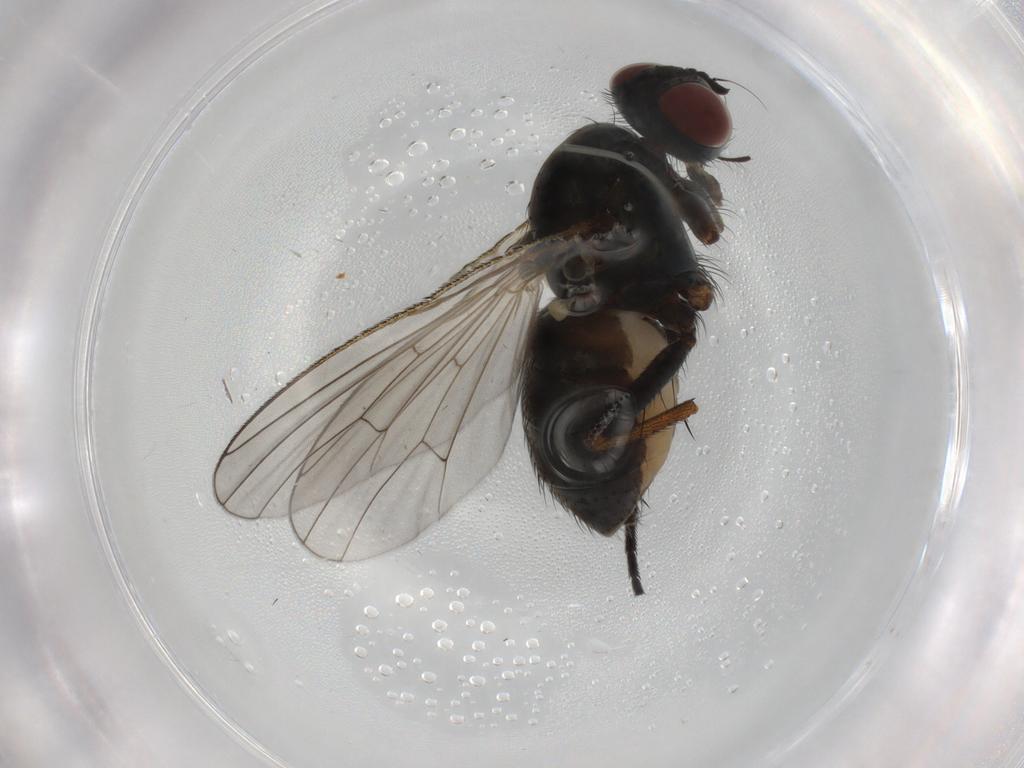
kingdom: Animalia
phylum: Arthropoda
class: Insecta
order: Diptera
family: Muscidae
